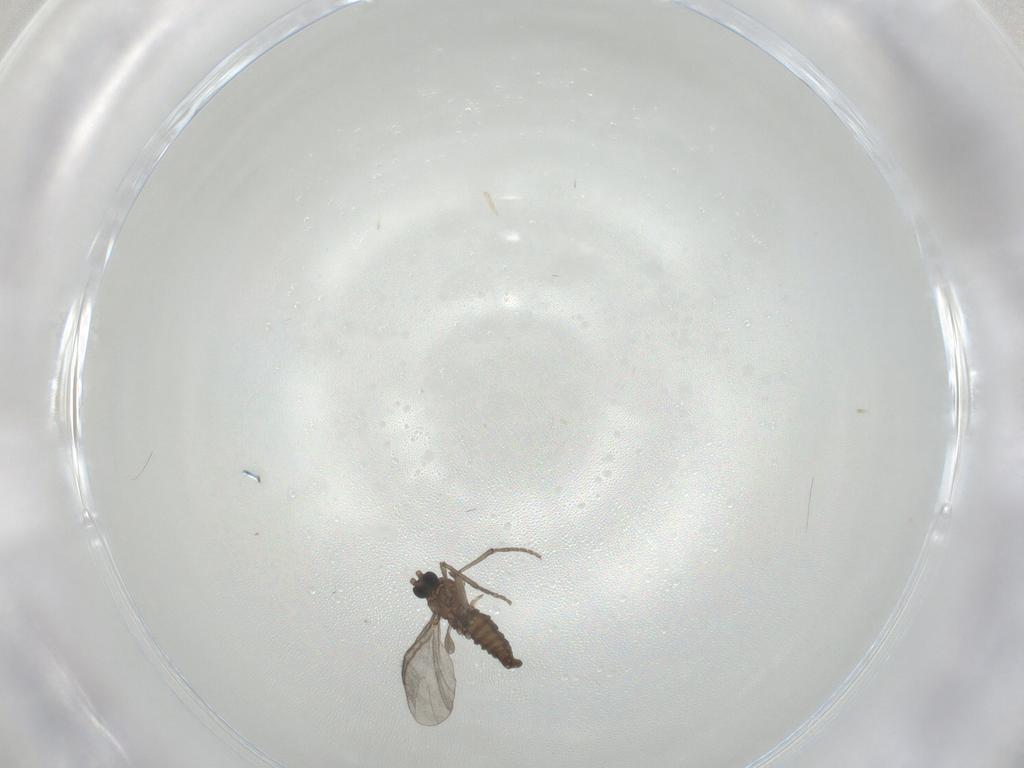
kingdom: Animalia
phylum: Arthropoda
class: Insecta
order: Diptera
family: Sciaridae
